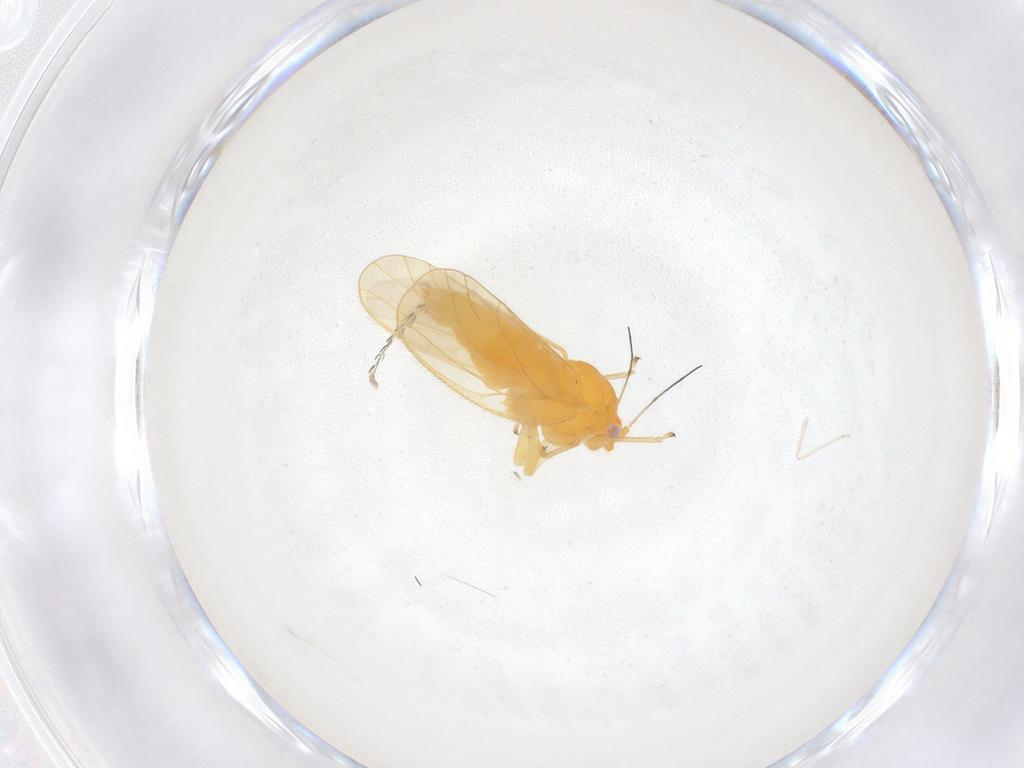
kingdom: Animalia
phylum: Arthropoda
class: Insecta
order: Hemiptera
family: Psyllidae
